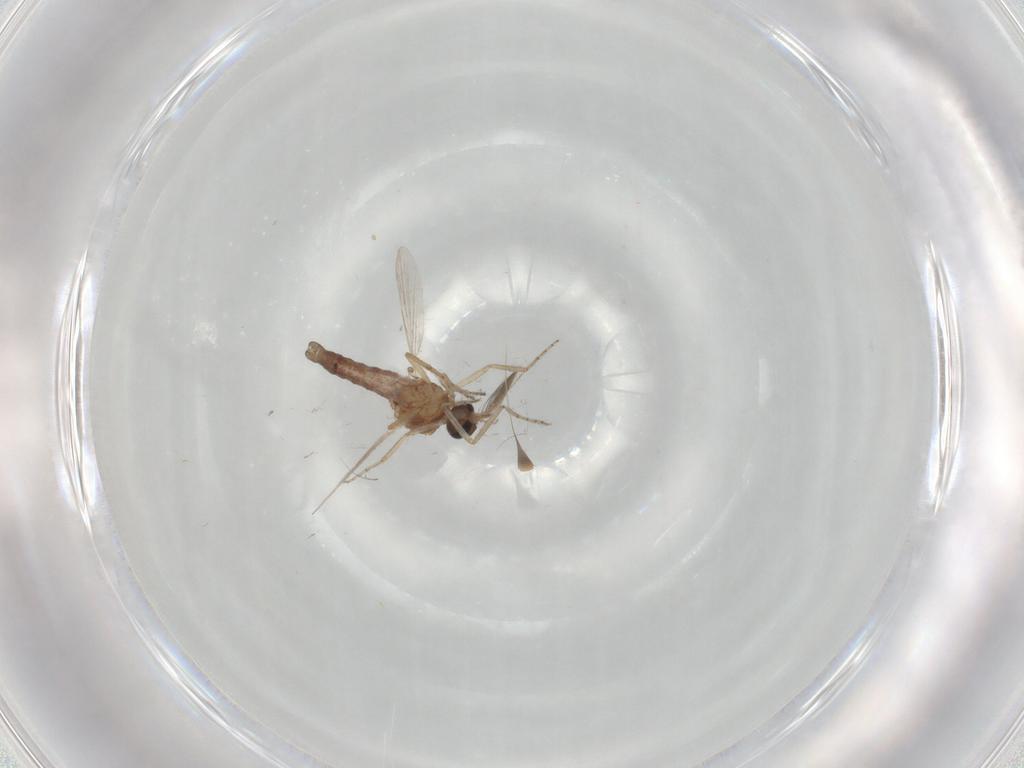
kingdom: Animalia
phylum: Arthropoda
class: Insecta
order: Diptera
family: Ceratopogonidae
